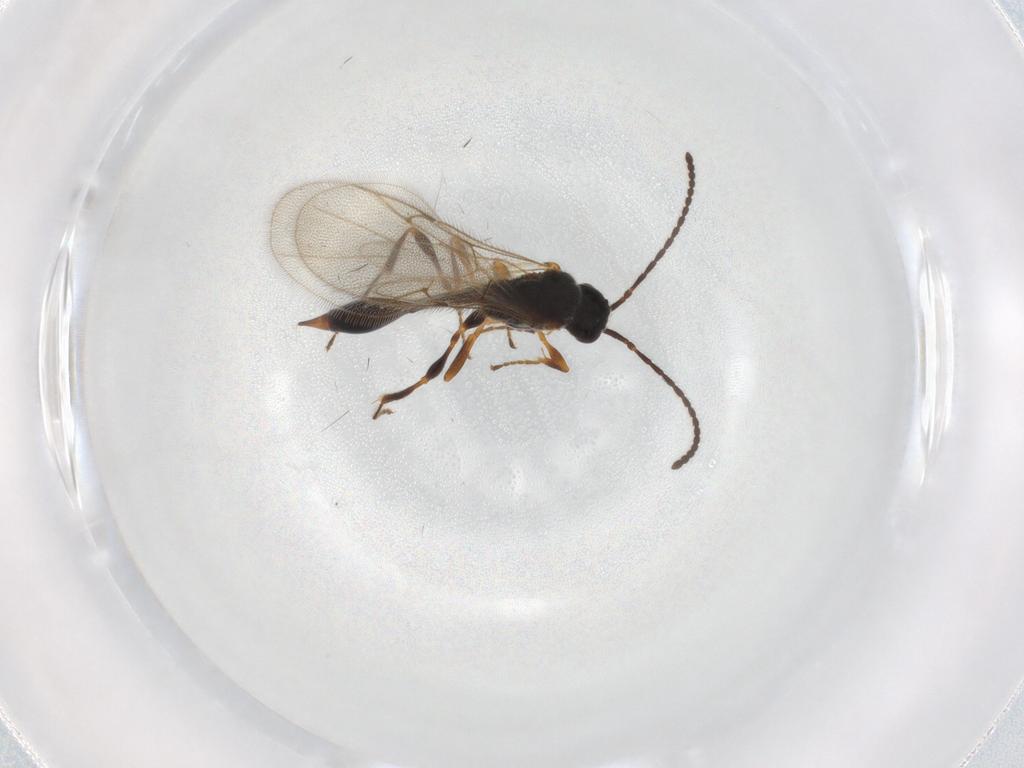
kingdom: Animalia
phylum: Arthropoda
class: Insecta
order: Hymenoptera
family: Diapriidae
